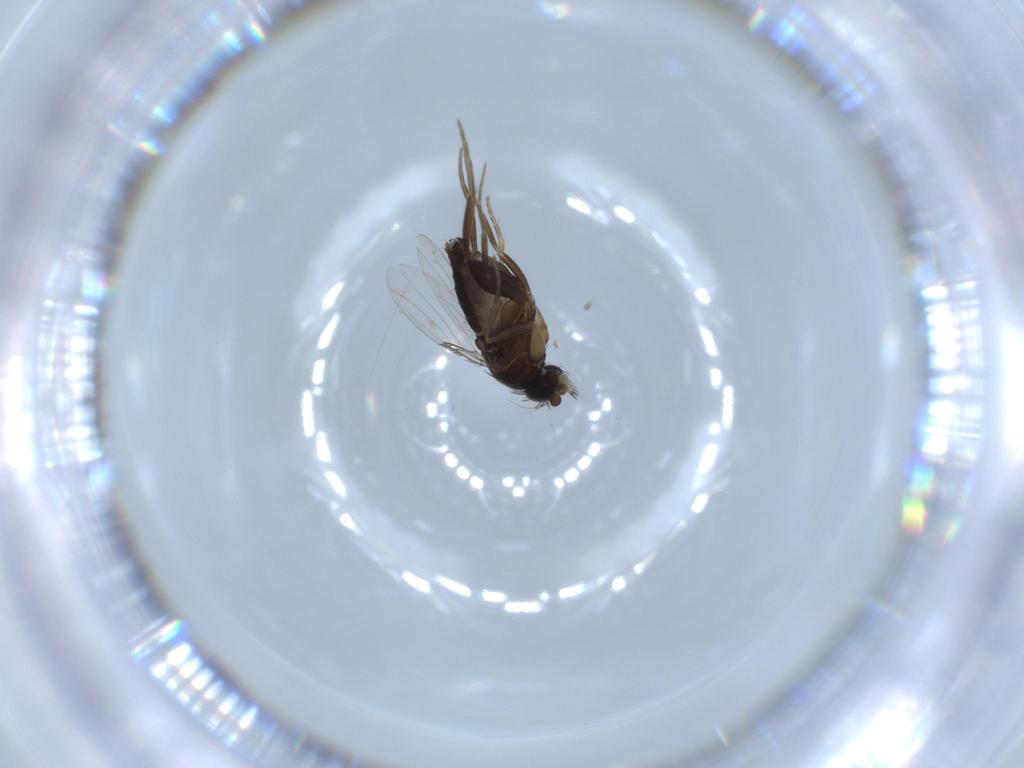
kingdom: Animalia
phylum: Arthropoda
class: Insecta
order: Diptera
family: Phoridae
